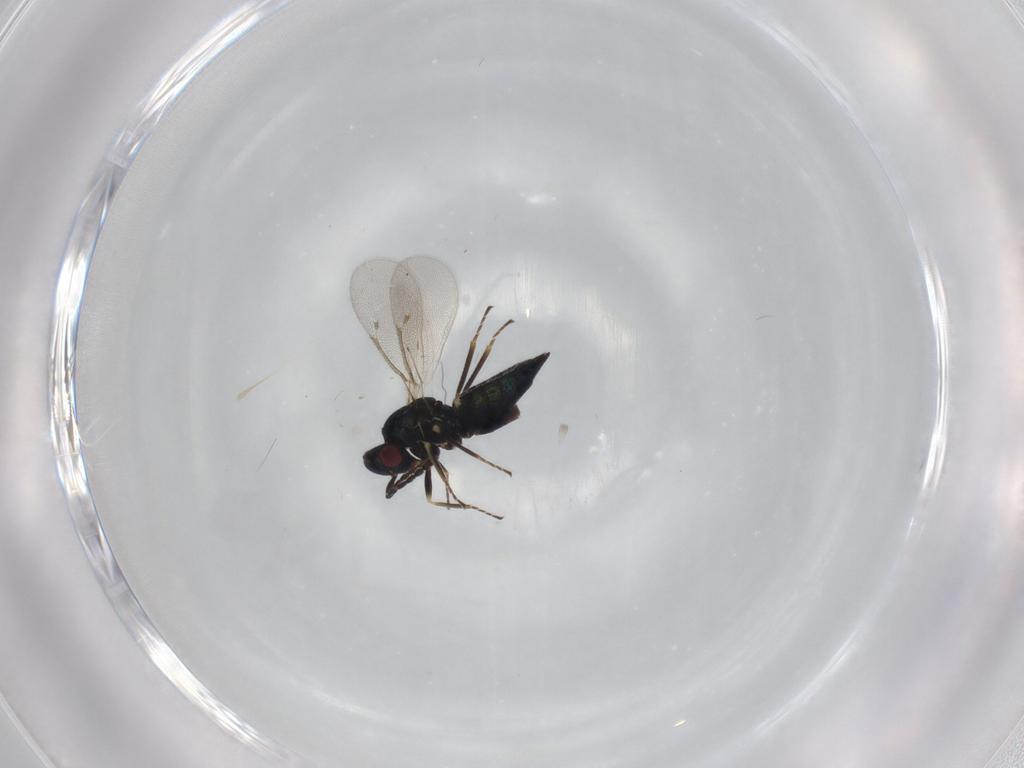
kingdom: Animalia
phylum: Arthropoda
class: Insecta
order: Hymenoptera
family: Eulophidae
